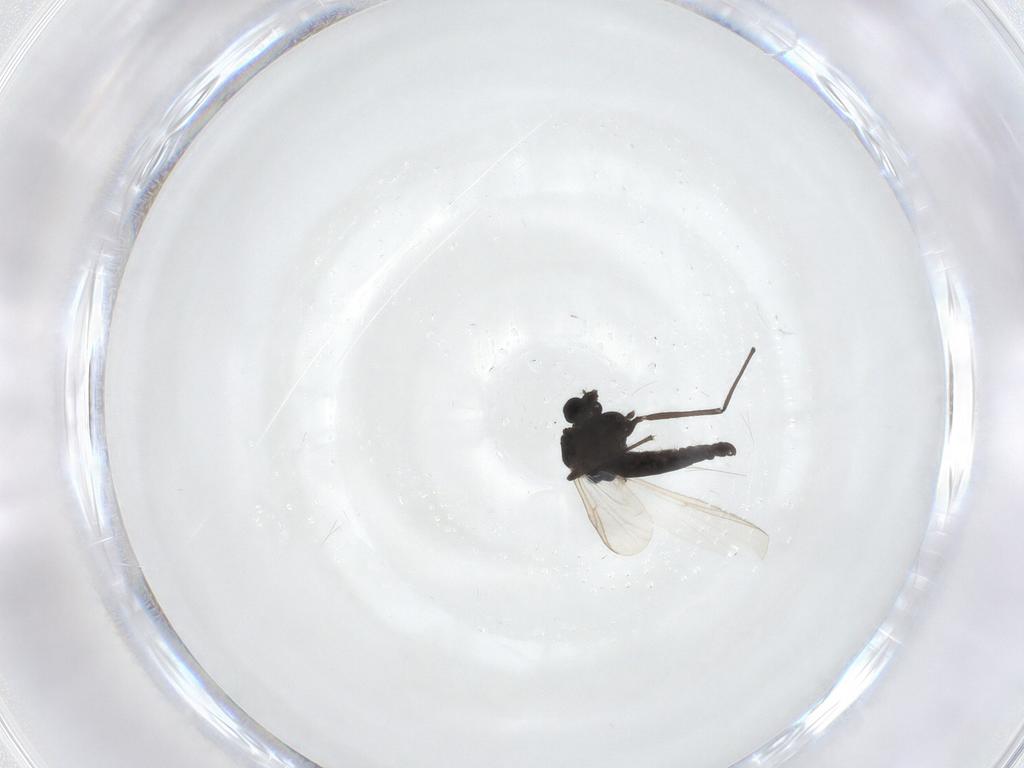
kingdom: Animalia
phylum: Arthropoda
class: Insecta
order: Diptera
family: Chironomidae
